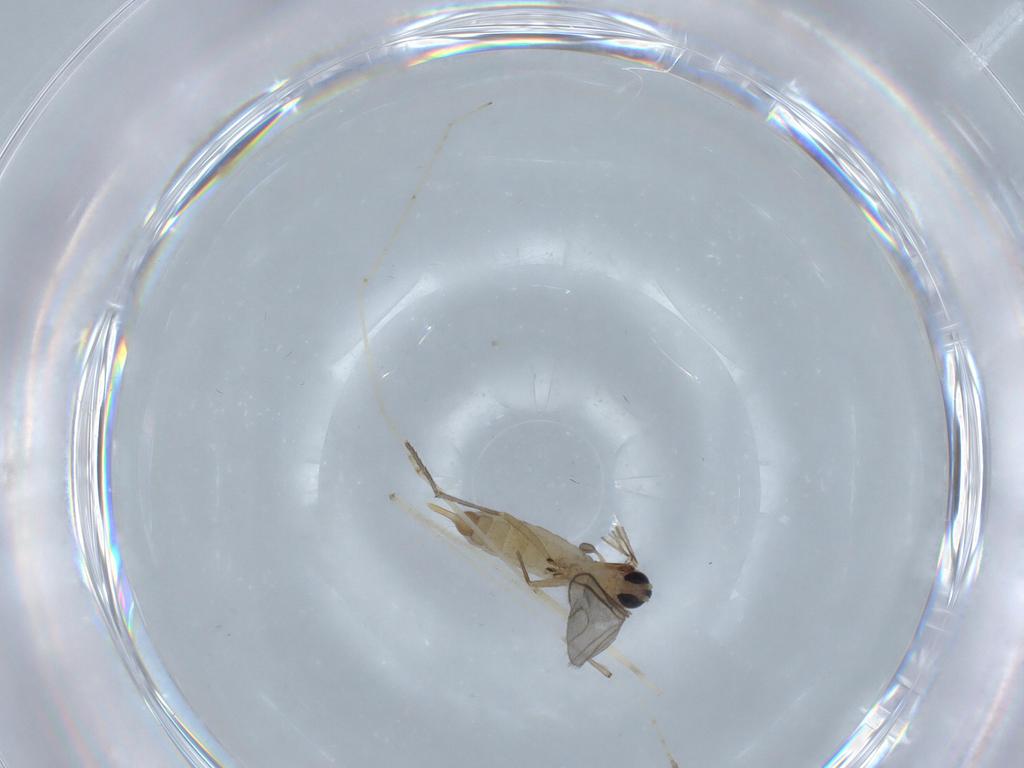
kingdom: Animalia
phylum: Arthropoda
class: Insecta
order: Diptera
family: Sciaridae
